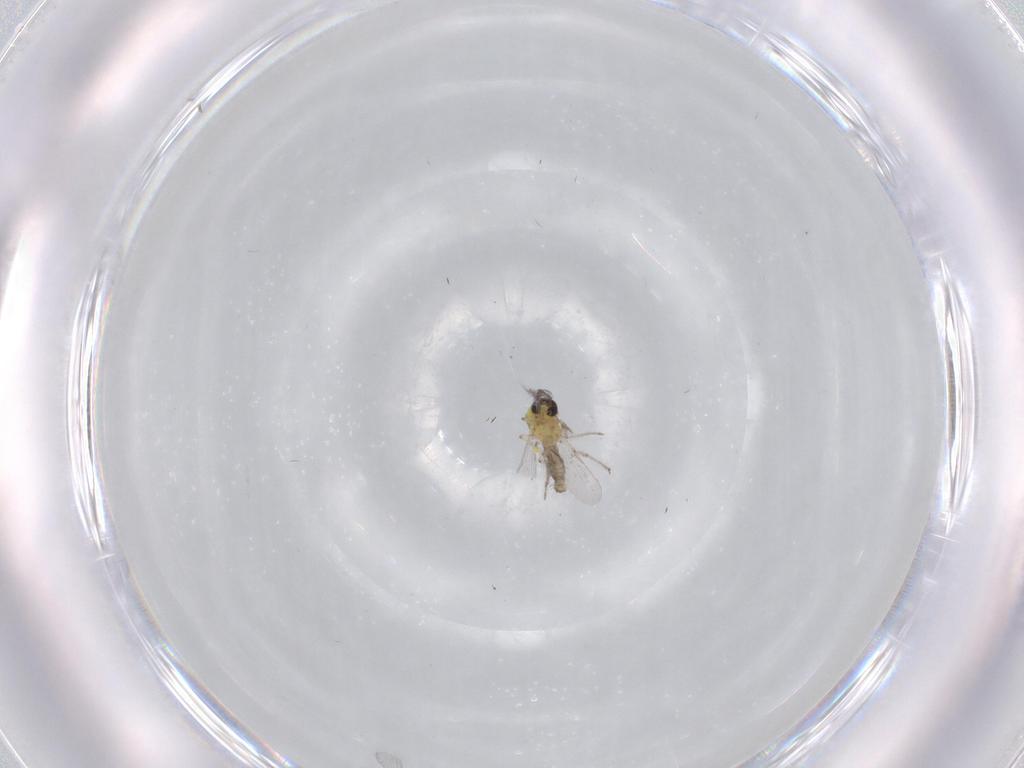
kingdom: Animalia
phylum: Arthropoda
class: Insecta
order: Diptera
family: Ceratopogonidae
